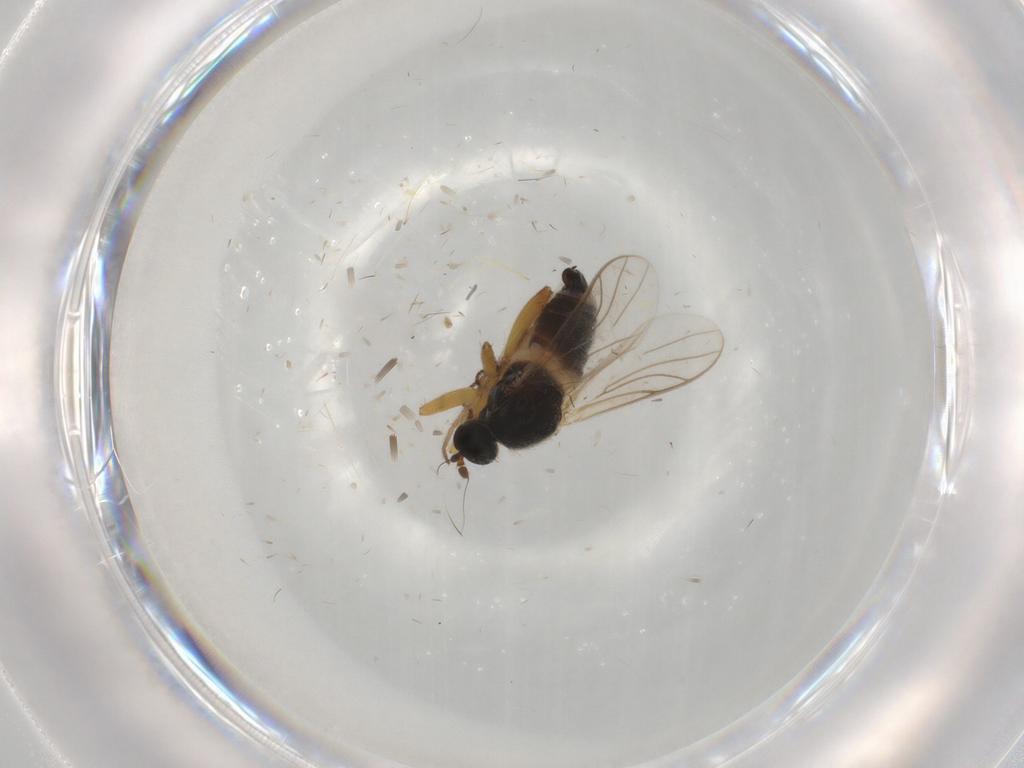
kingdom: Animalia
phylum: Arthropoda
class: Insecta
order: Diptera
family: Hybotidae
